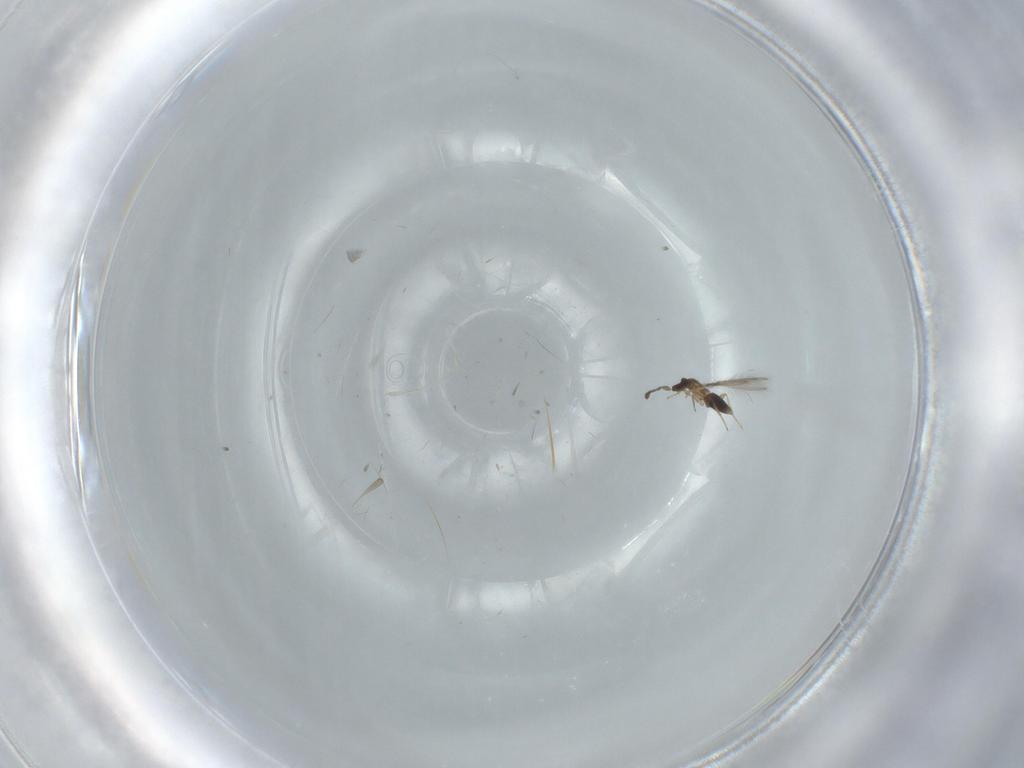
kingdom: Animalia
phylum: Arthropoda
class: Insecta
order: Hymenoptera
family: Mymaridae
